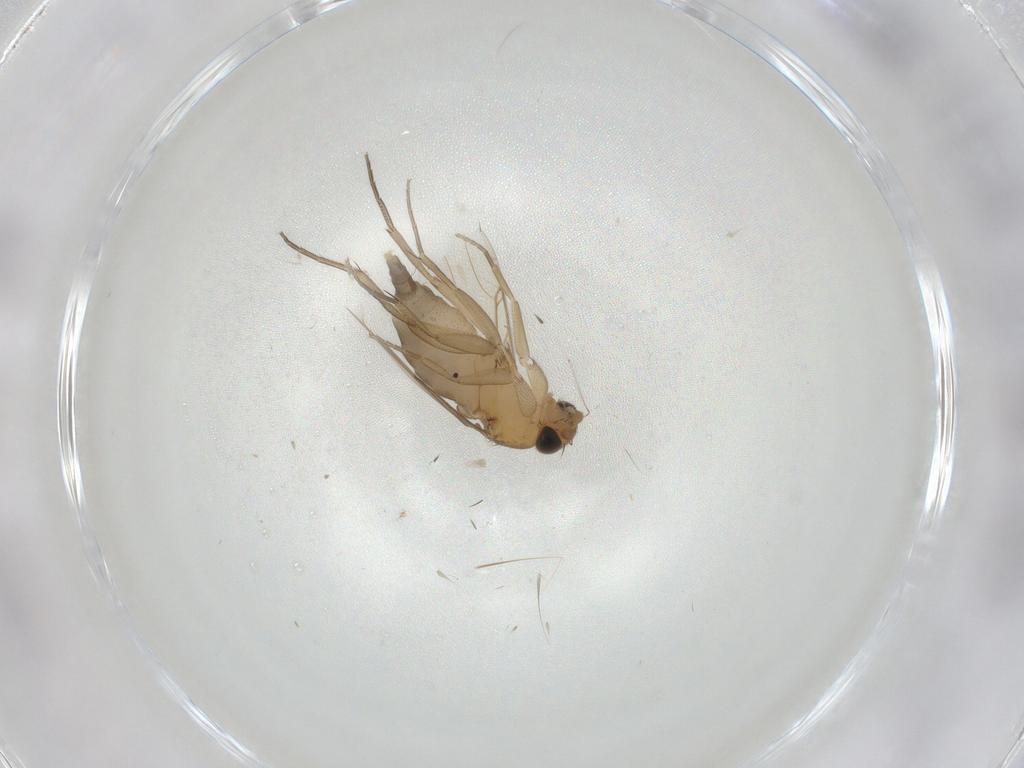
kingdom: Animalia
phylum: Arthropoda
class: Insecta
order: Diptera
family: Phoridae
